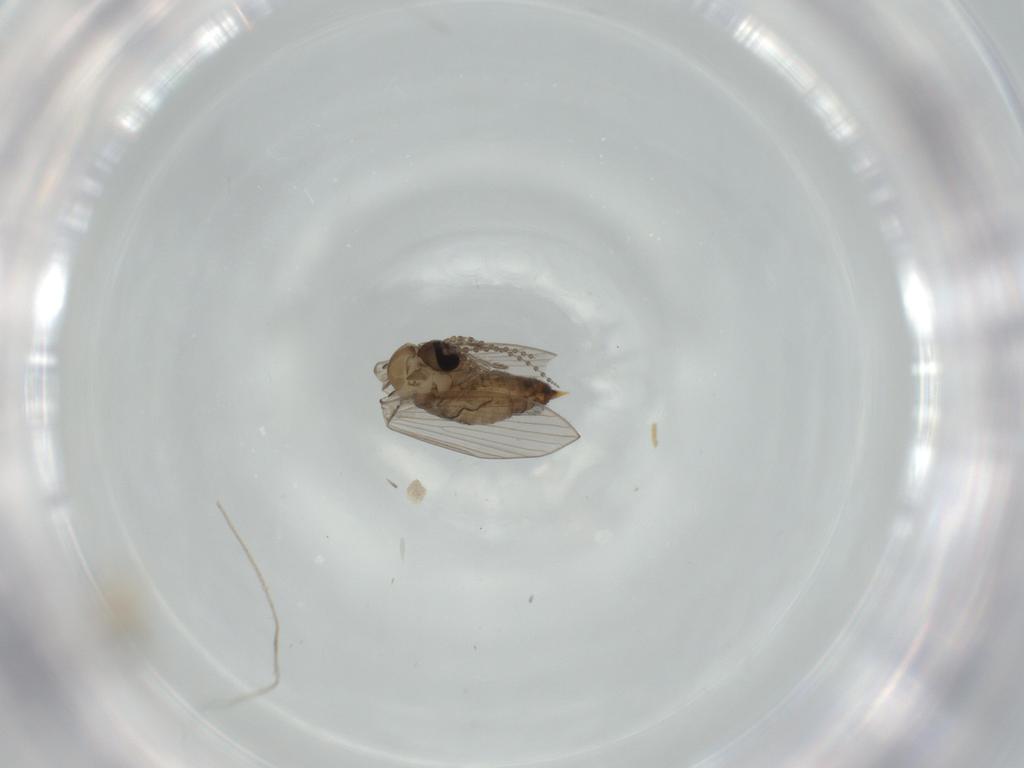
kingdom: Animalia
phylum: Arthropoda
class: Insecta
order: Diptera
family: Psychodidae
